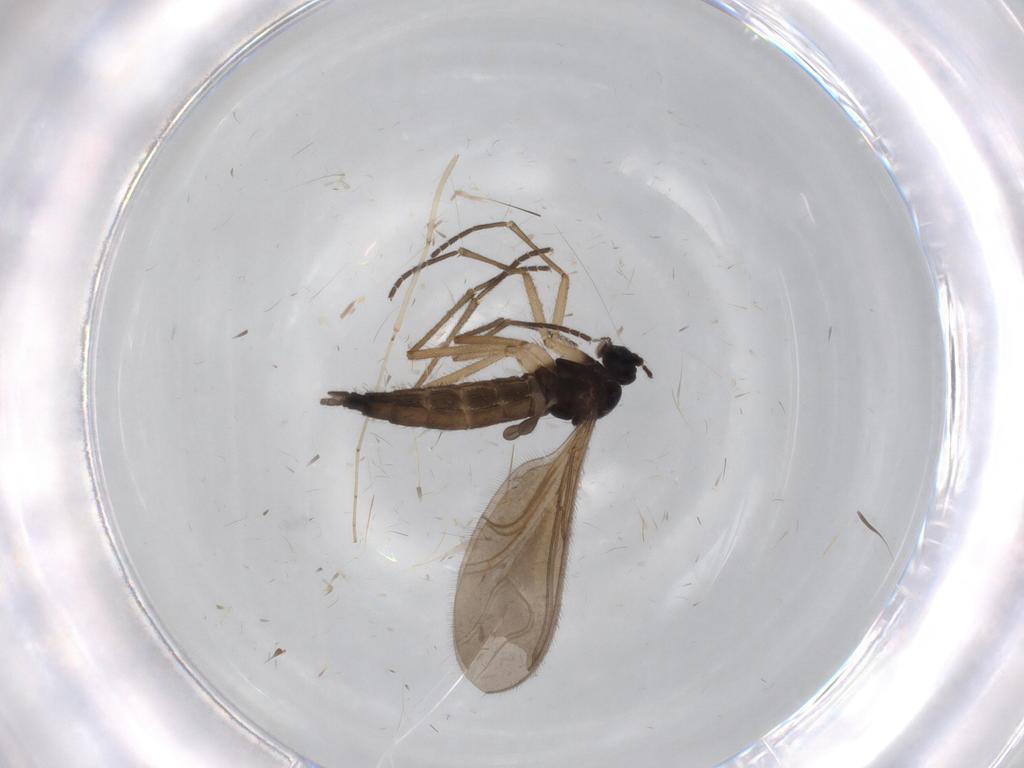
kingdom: Animalia
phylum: Arthropoda
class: Insecta
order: Diptera
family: Sciaridae
